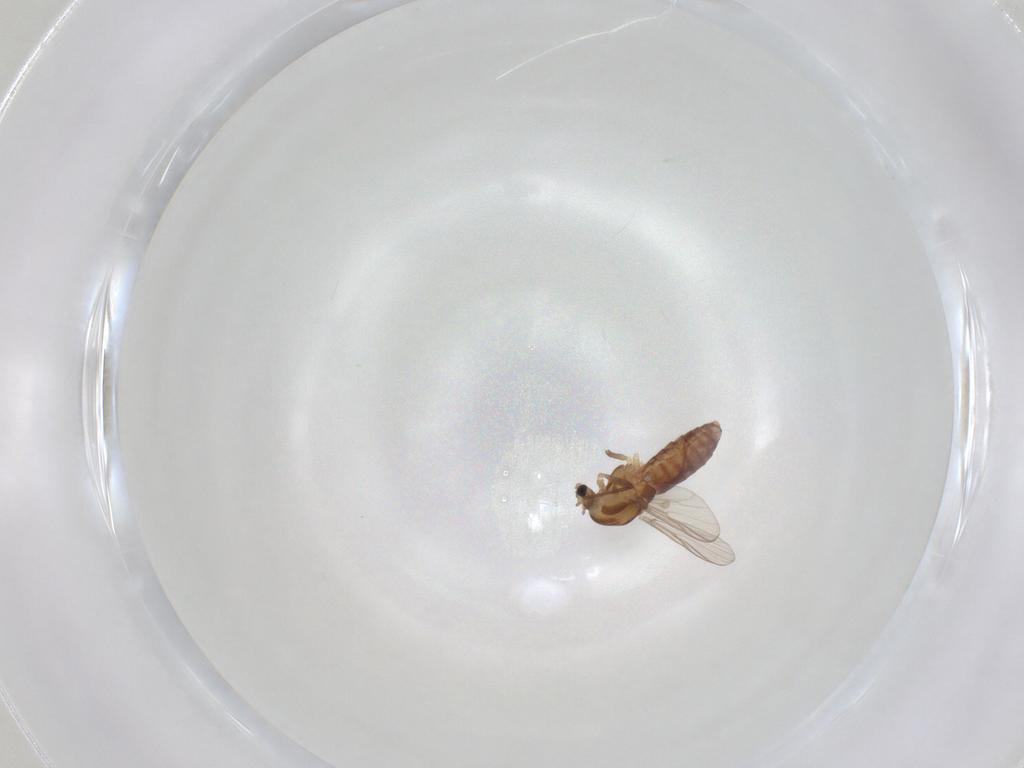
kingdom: Animalia
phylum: Arthropoda
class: Insecta
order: Diptera
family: Chironomidae
